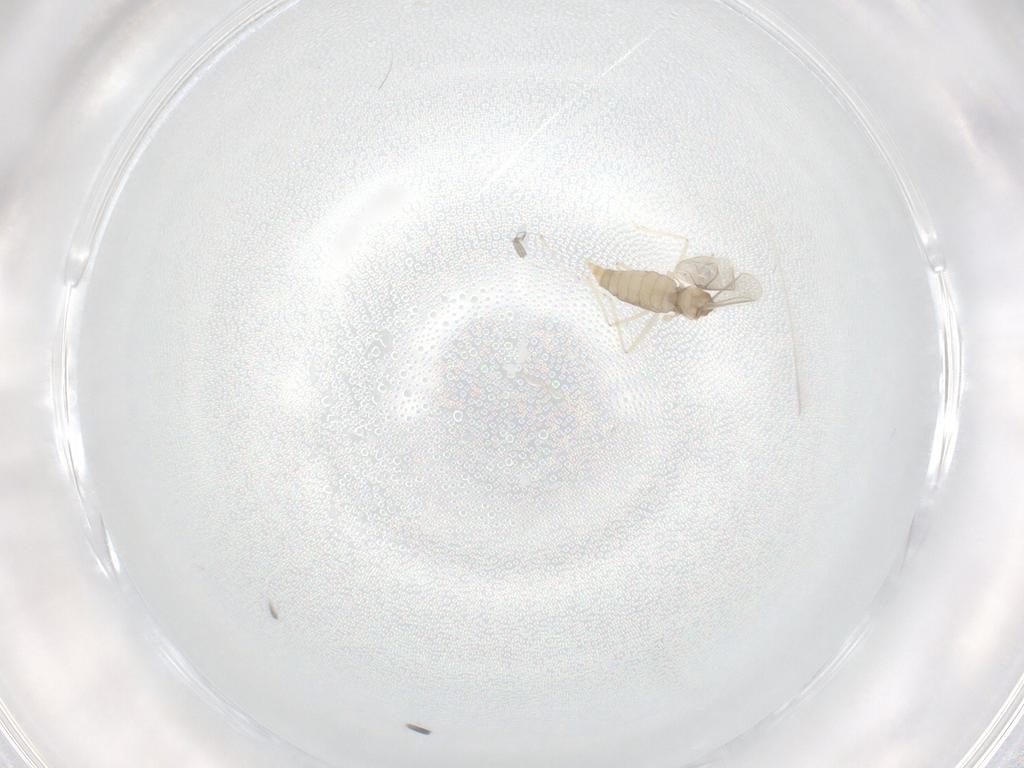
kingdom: Animalia
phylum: Arthropoda
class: Insecta
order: Diptera
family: Cecidomyiidae
